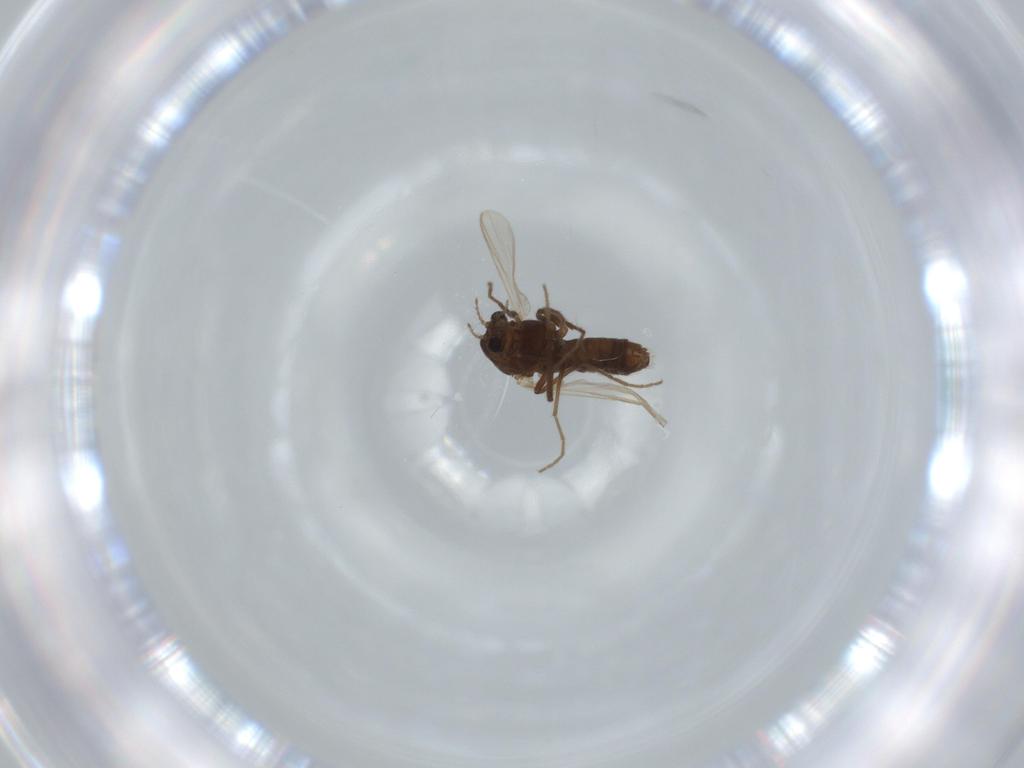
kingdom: Animalia
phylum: Arthropoda
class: Insecta
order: Diptera
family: Chironomidae
